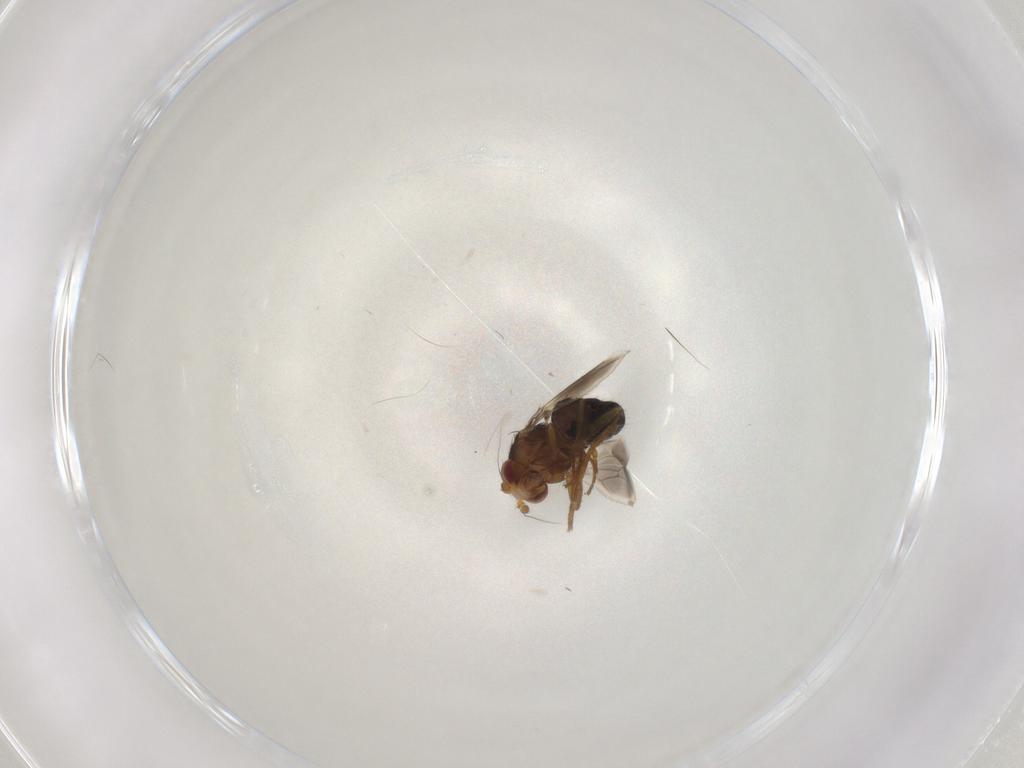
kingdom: Animalia
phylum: Arthropoda
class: Insecta
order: Diptera
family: Sphaeroceridae
